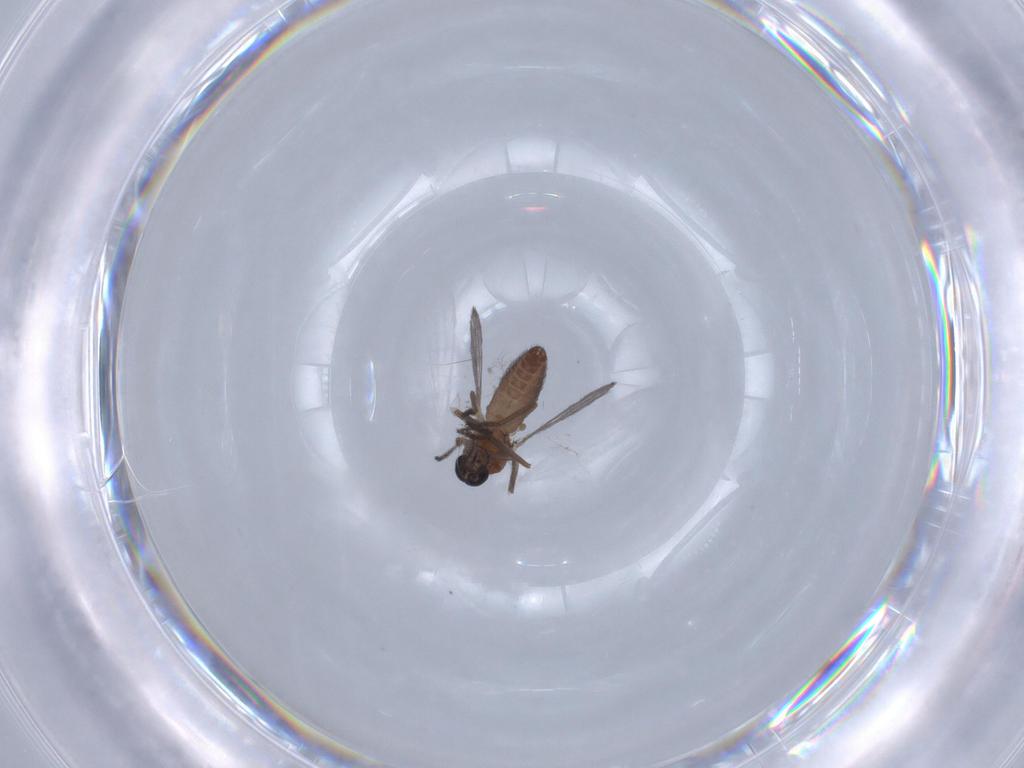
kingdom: Animalia
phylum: Arthropoda
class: Insecta
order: Diptera
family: Ceratopogonidae
